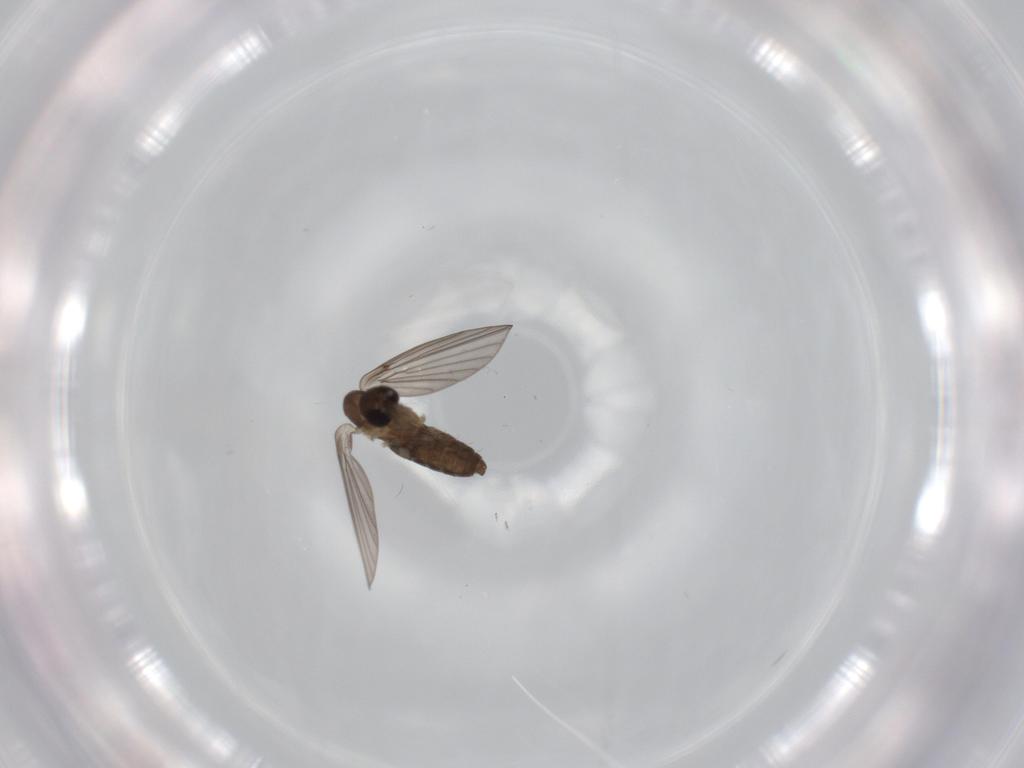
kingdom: Animalia
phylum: Arthropoda
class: Insecta
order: Diptera
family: Psychodidae
